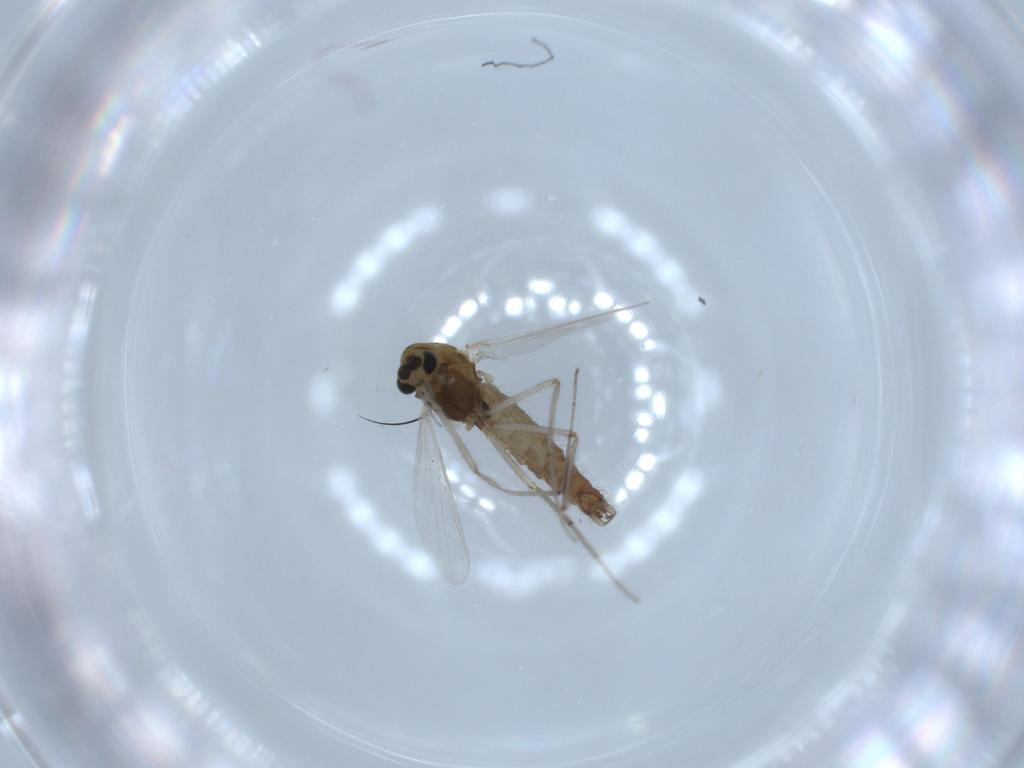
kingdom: Animalia
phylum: Arthropoda
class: Insecta
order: Diptera
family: Chironomidae
